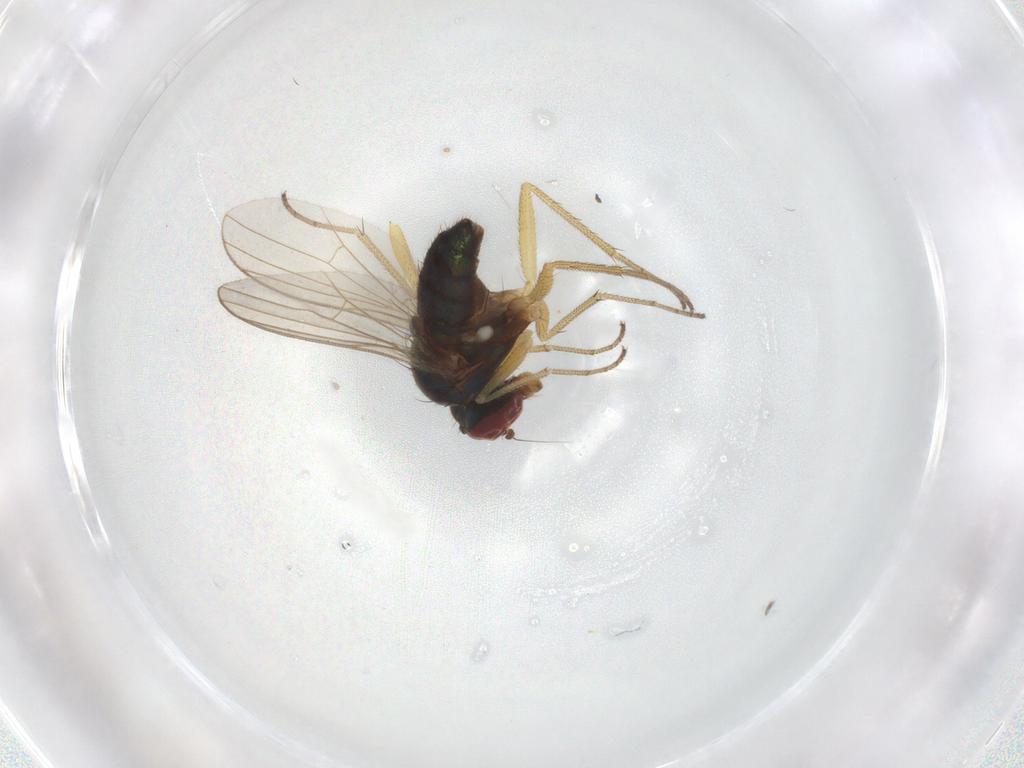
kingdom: Animalia
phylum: Arthropoda
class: Insecta
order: Diptera
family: Dolichopodidae
